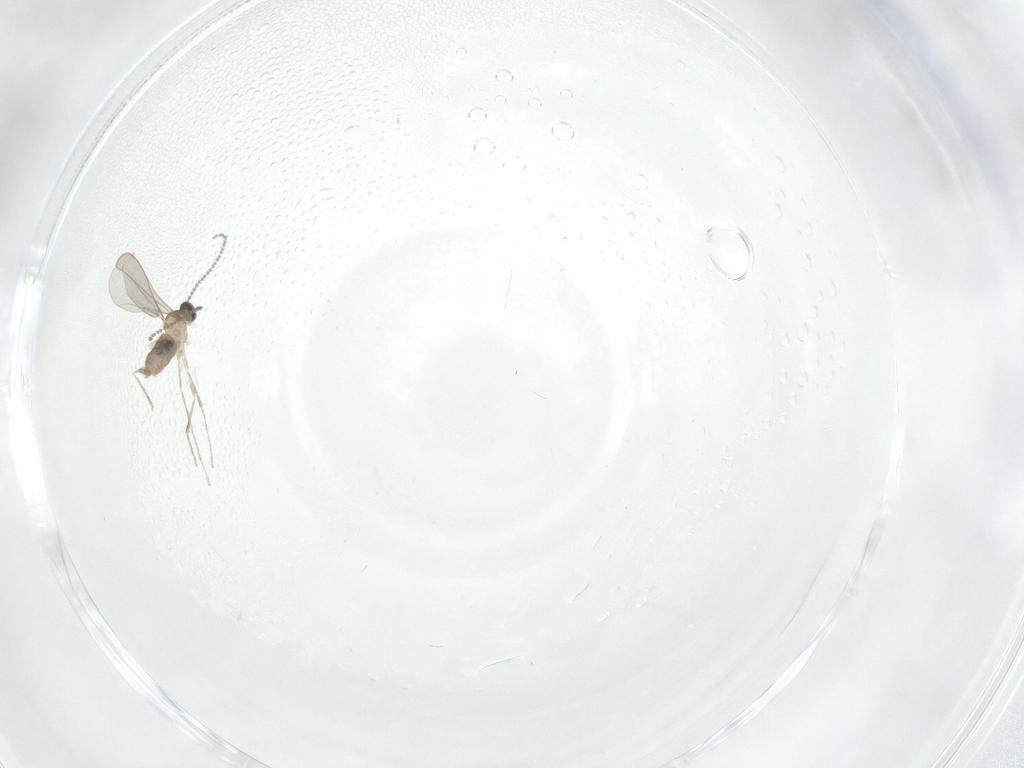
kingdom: Animalia
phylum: Arthropoda
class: Insecta
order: Diptera
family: Cecidomyiidae
